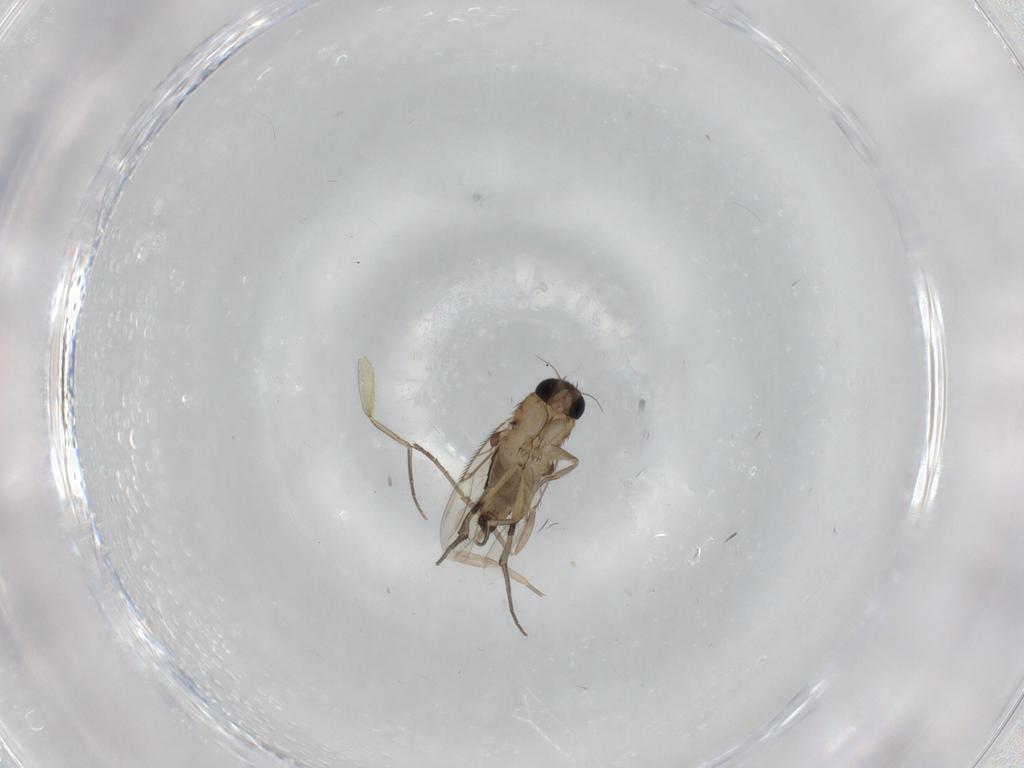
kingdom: Animalia
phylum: Arthropoda
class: Insecta
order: Diptera
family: Phoridae
